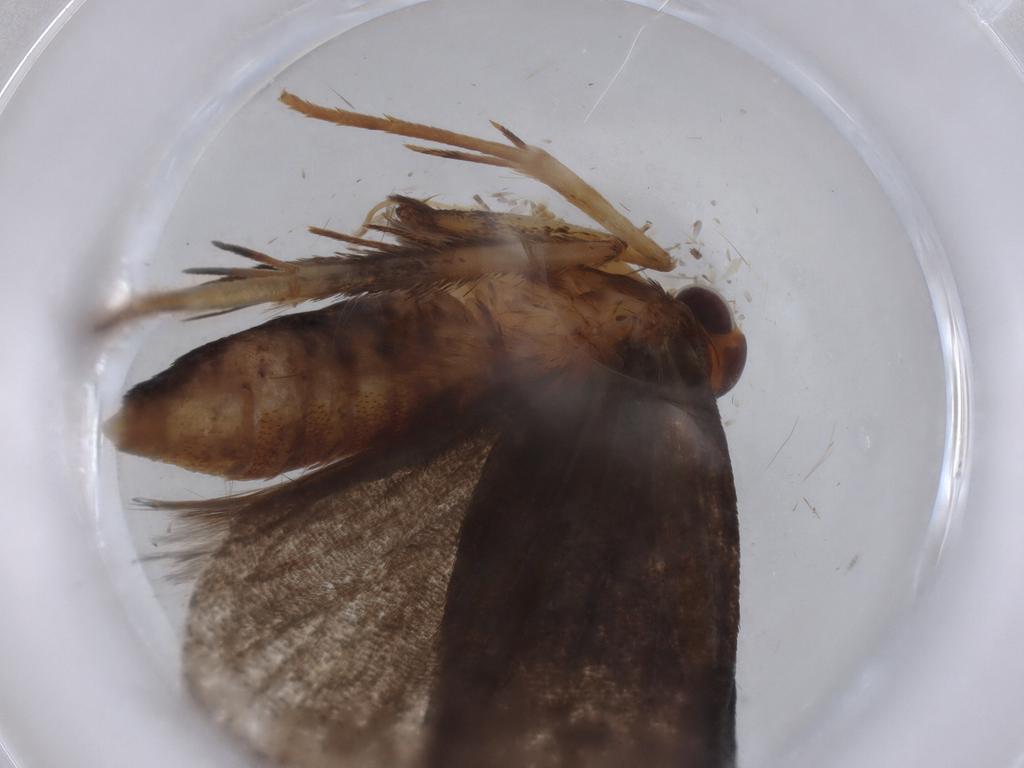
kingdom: Animalia
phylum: Arthropoda
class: Insecta
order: Lepidoptera
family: Lecithoceridae
